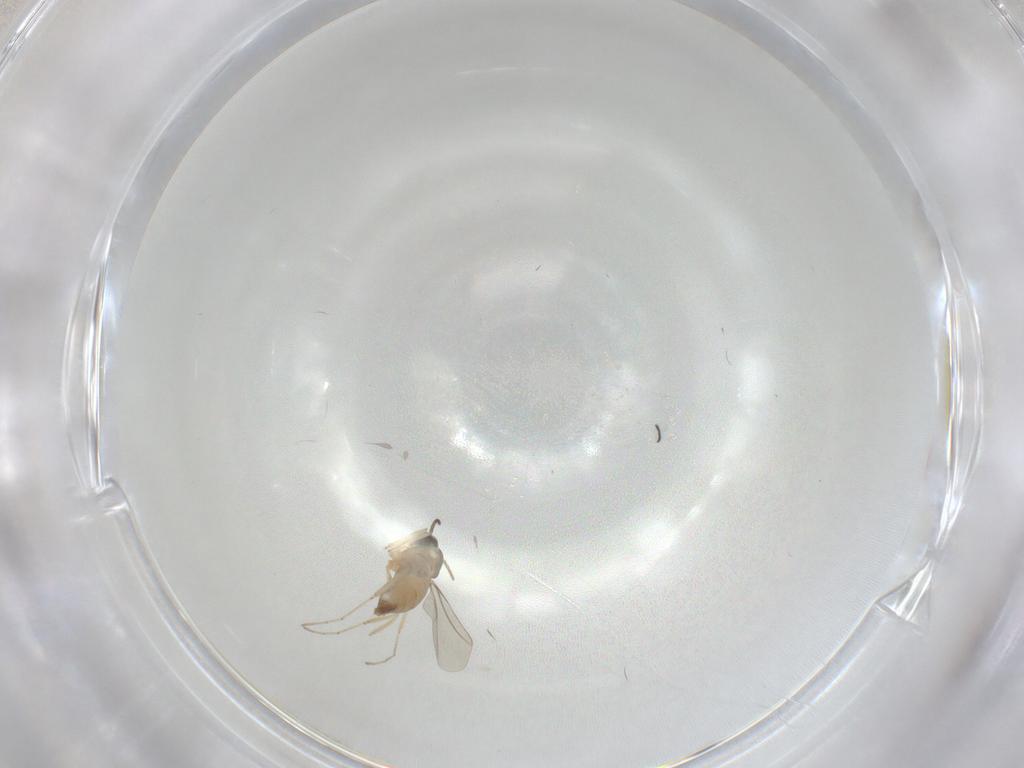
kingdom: Animalia
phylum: Arthropoda
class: Insecta
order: Diptera
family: Cecidomyiidae
